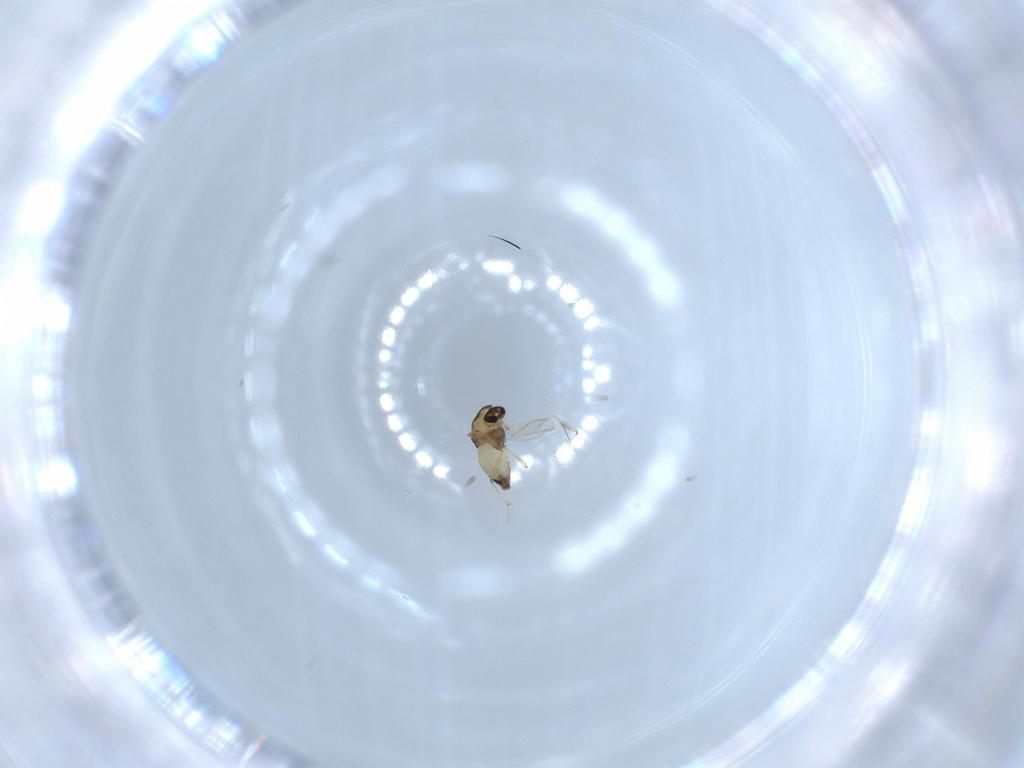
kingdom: Animalia
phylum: Arthropoda
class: Insecta
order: Diptera
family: Chironomidae
